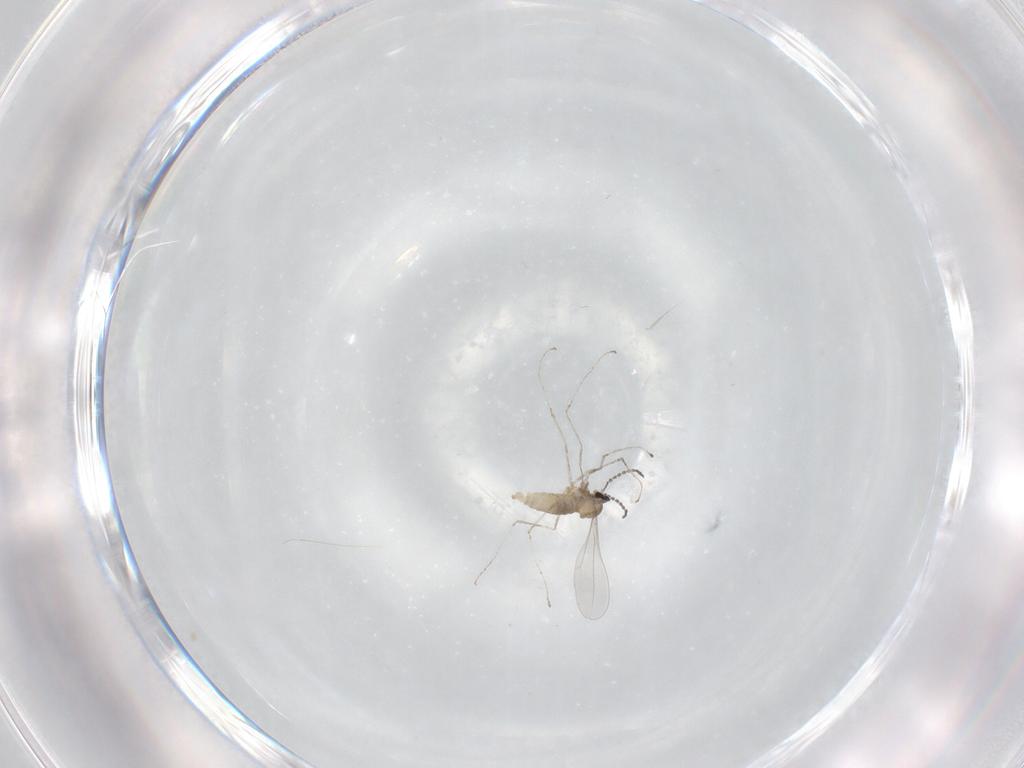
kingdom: Animalia
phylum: Arthropoda
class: Insecta
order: Diptera
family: Cecidomyiidae
